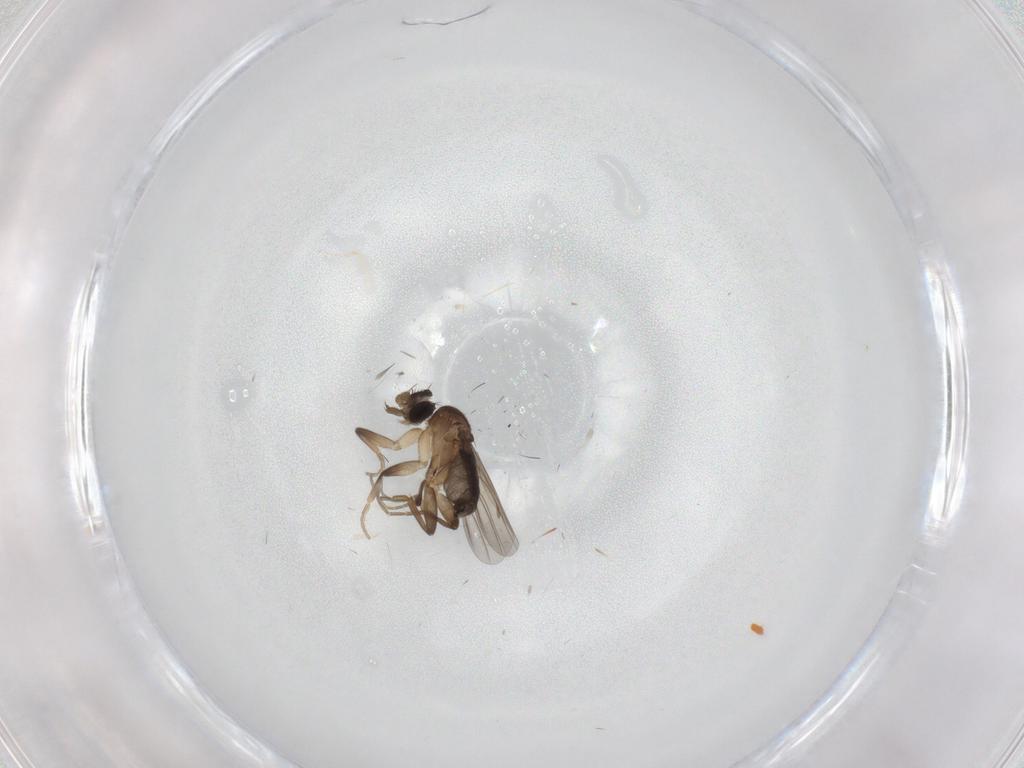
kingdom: Animalia
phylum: Arthropoda
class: Insecta
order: Diptera
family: Phoridae
